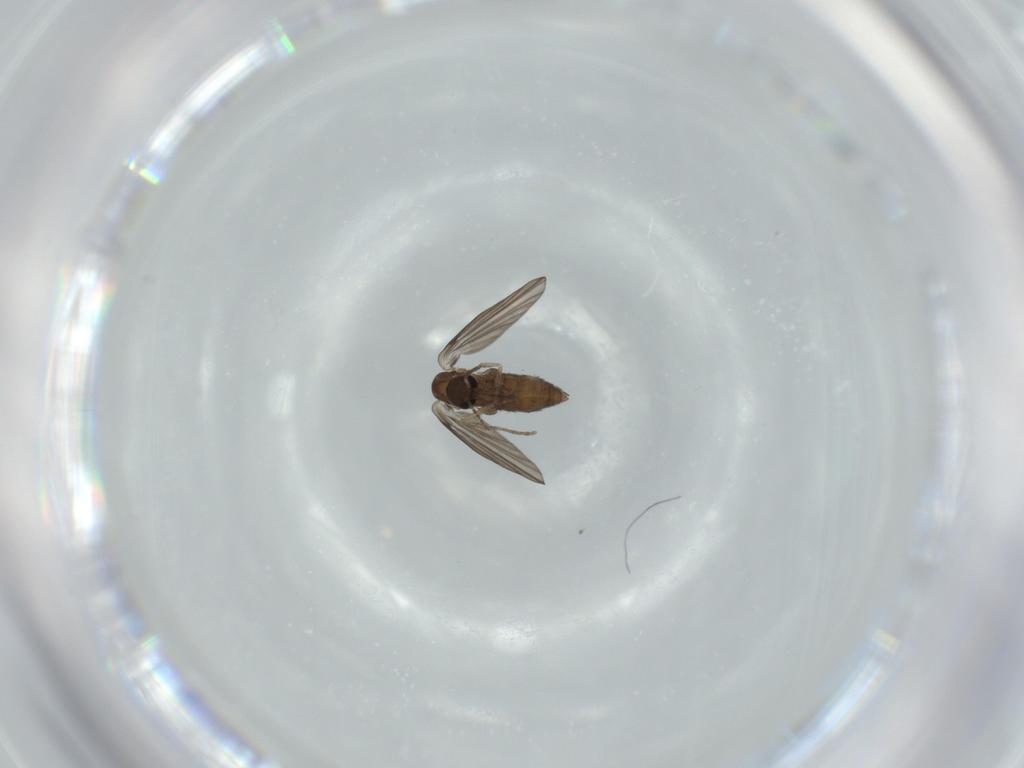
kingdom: Animalia
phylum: Arthropoda
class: Insecta
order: Diptera
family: Psychodidae
